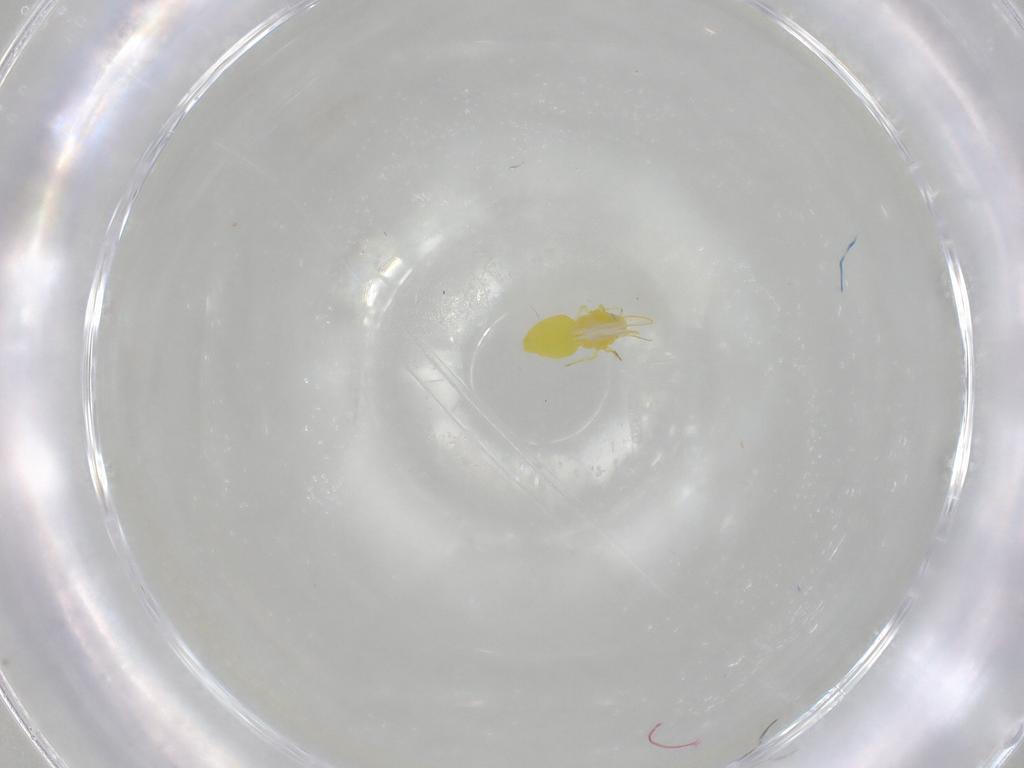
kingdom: Animalia
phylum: Arthropoda
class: Insecta
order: Hemiptera
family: Aleyrodidae
